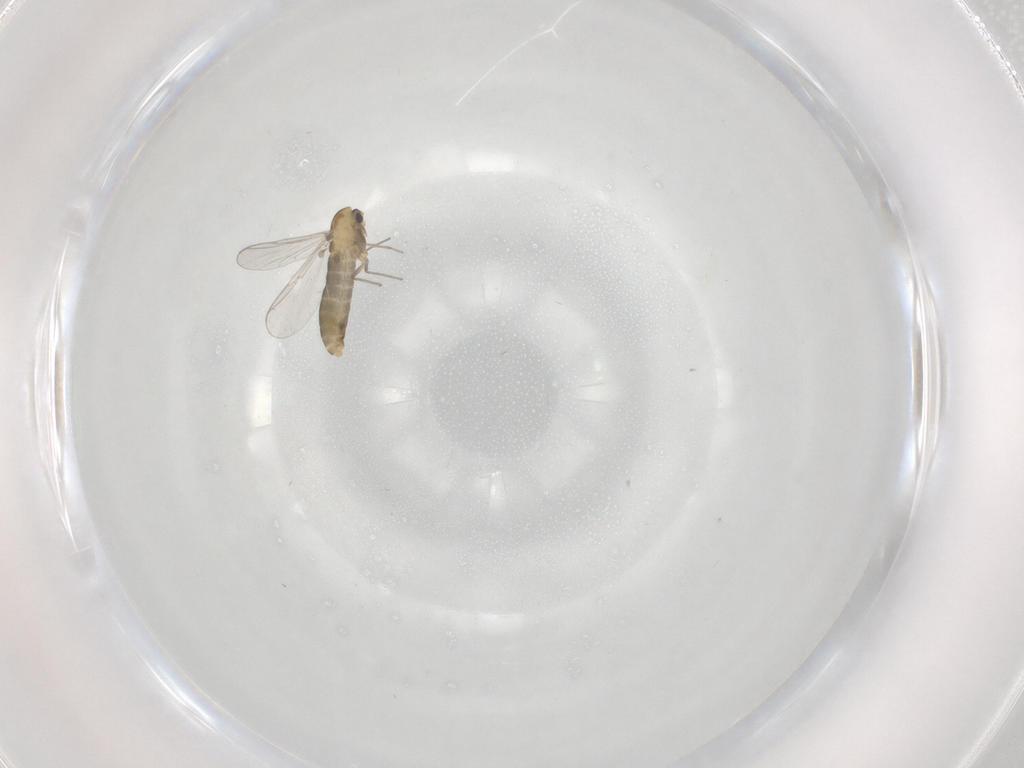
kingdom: Animalia
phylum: Arthropoda
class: Insecta
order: Diptera
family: Chironomidae
